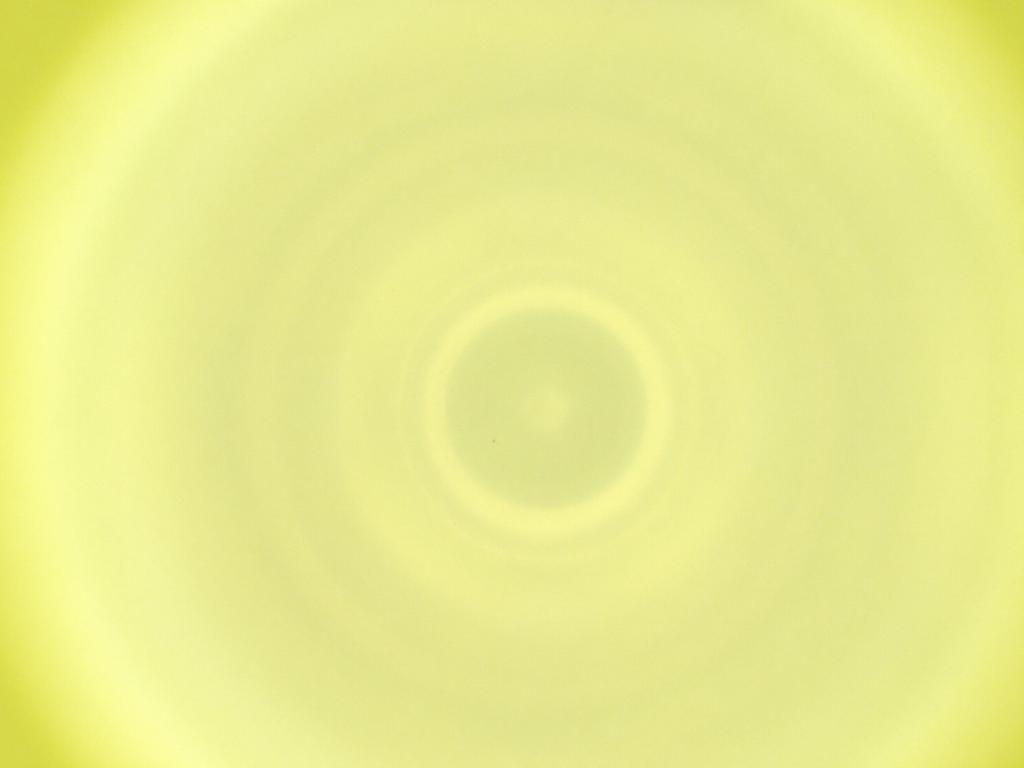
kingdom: Animalia
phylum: Arthropoda
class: Insecta
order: Diptera
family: Cecidomyiidae
